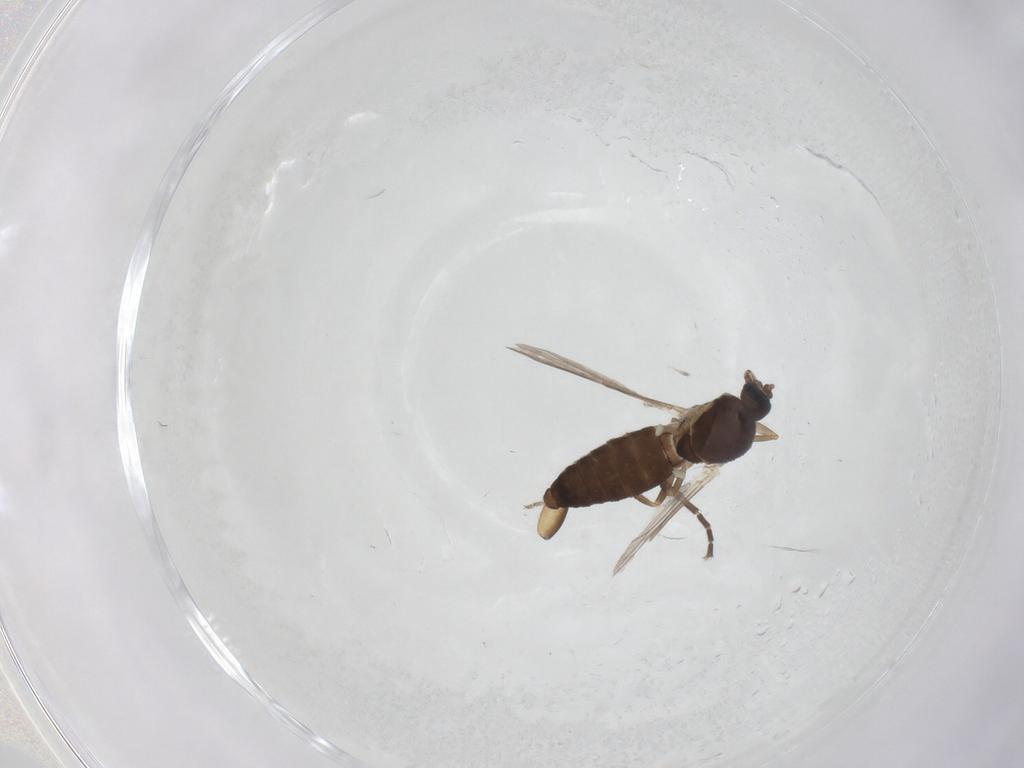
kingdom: Animalia
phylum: Arthropoda
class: Insecta
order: Diptera
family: Ceratopogonidae
